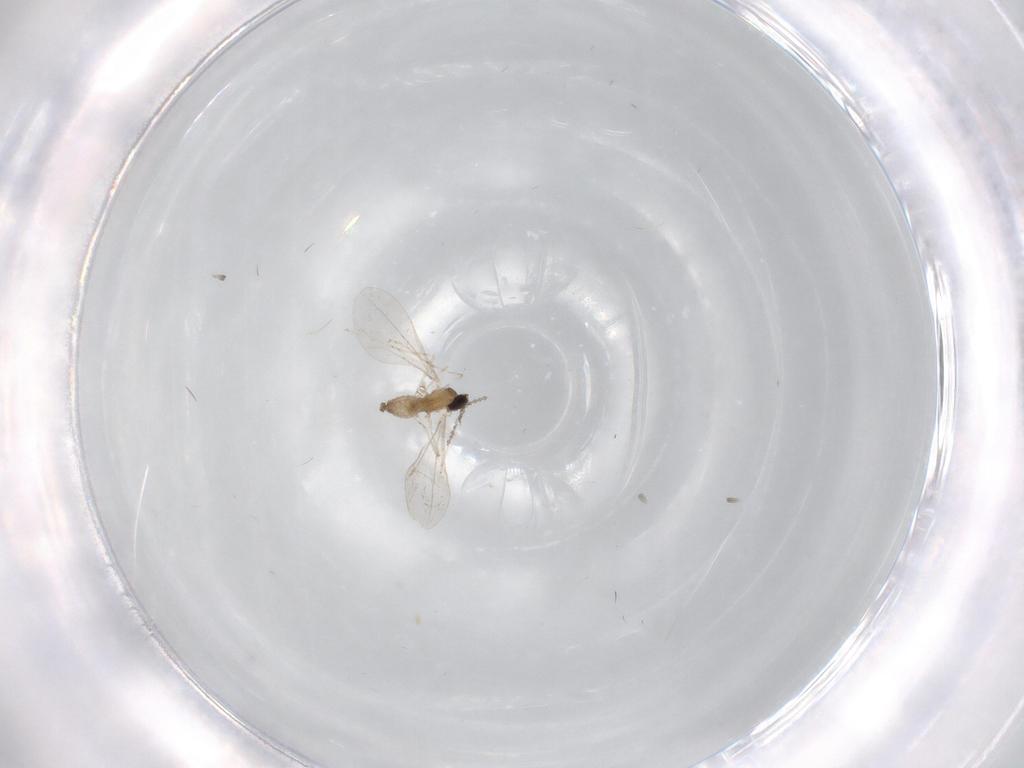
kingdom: Animalia
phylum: Arthropoda
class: Insecta
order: Diptera
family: Cecidomyiidae
